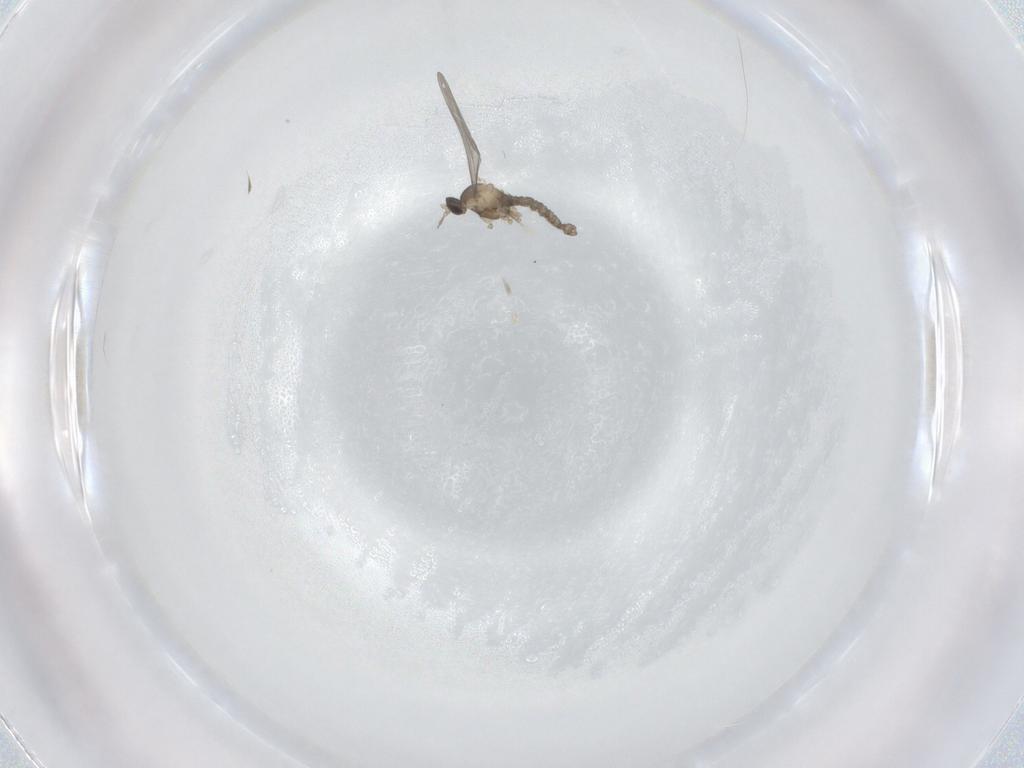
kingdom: Animalia
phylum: Arthropoda
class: Insecta
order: Diptera
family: Cecidomyiidae
